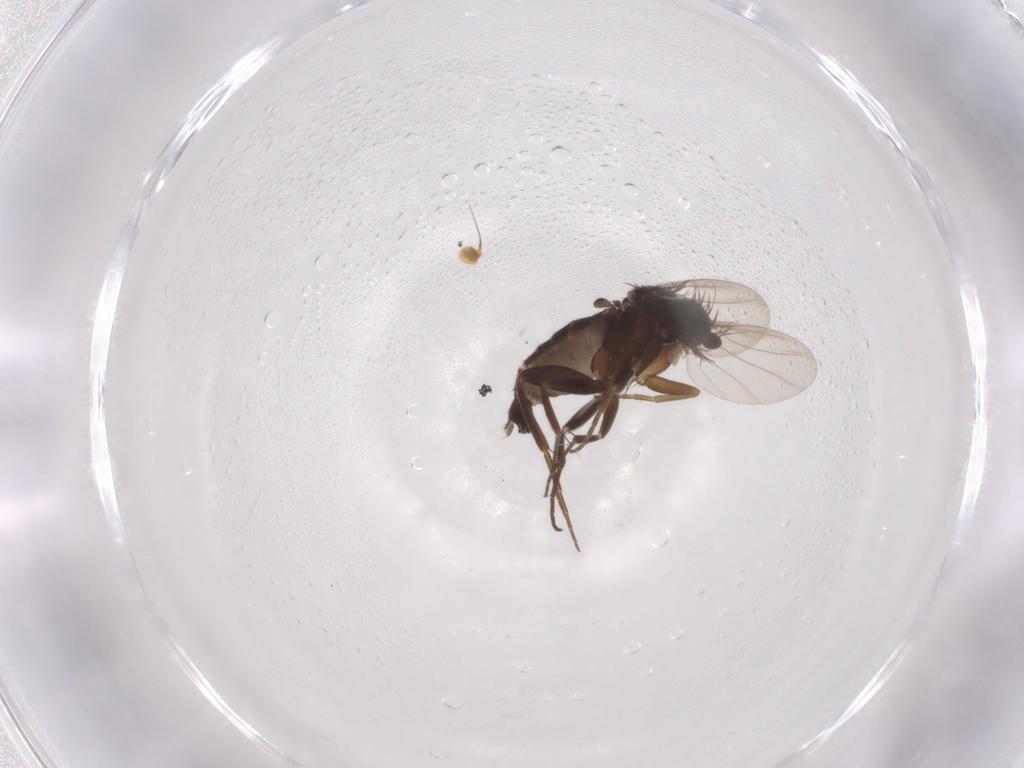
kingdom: Animalia
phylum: Arthropoda
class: Insecta
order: Diptera
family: Heleomyzidae
